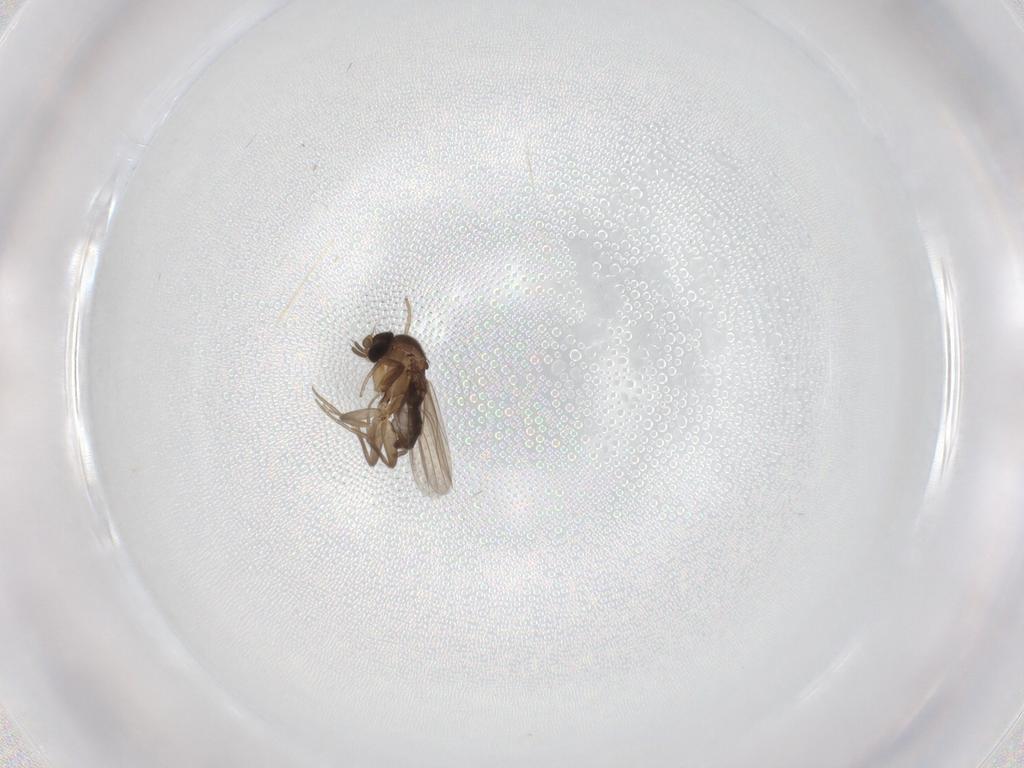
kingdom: Animalia
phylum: Arthropoda
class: Insecta
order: Diptera
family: Phoridae
